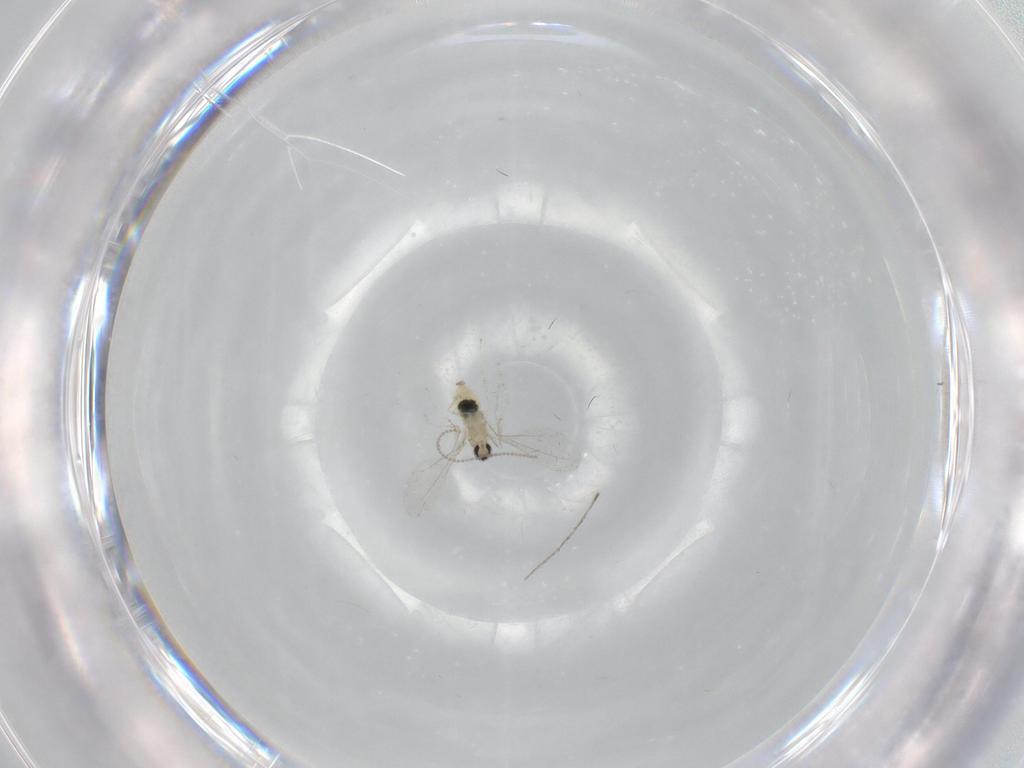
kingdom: Animalia
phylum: Arthropoda
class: Insecta
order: Diptera
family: Cecidomyiidae
